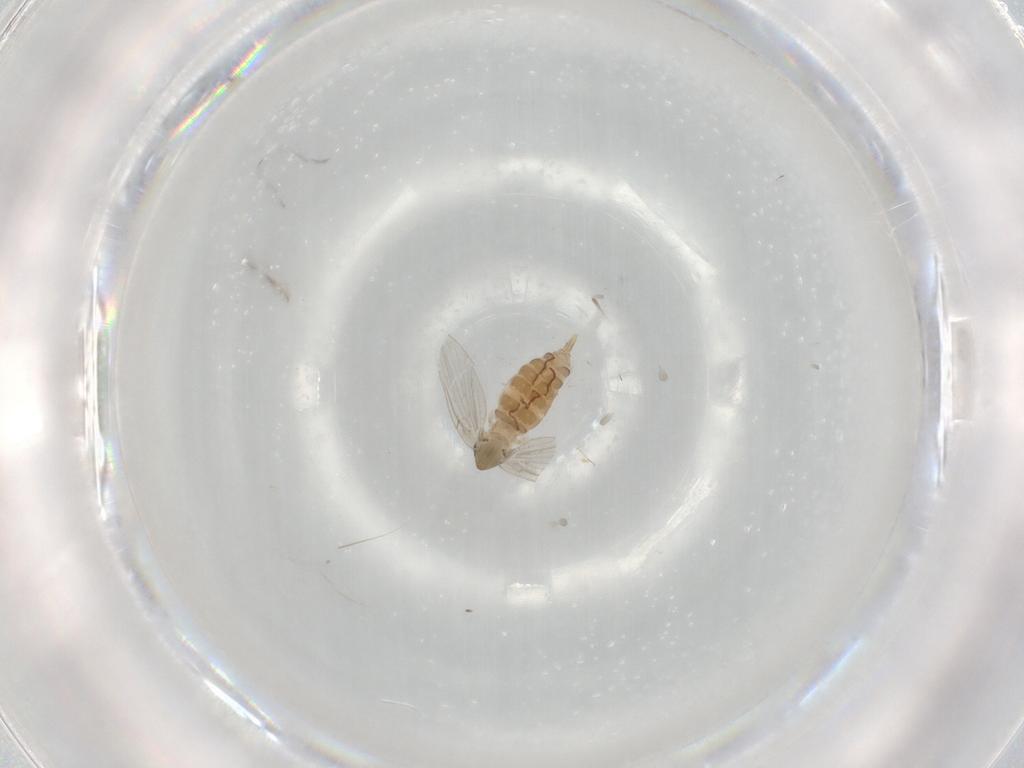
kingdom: Animalia
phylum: Arthropoda
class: Insecta
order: Diptera
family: Psychodidae
